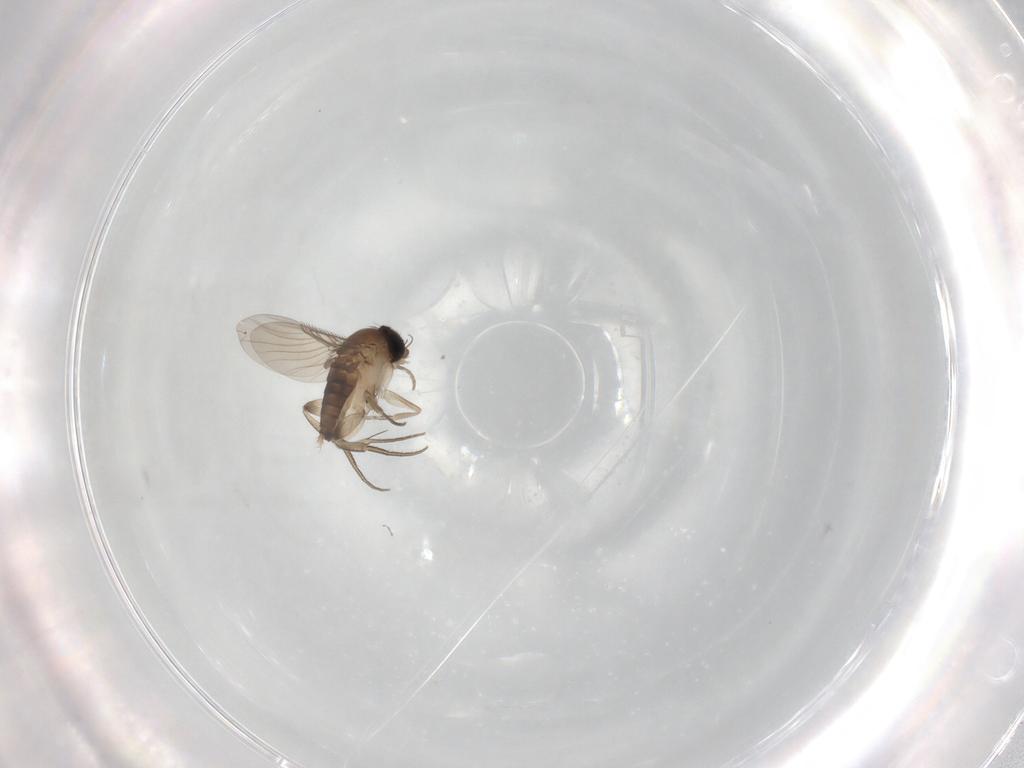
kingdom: Animalia
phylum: Arthropoda
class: Insecta
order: Diptera
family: Phoridae
